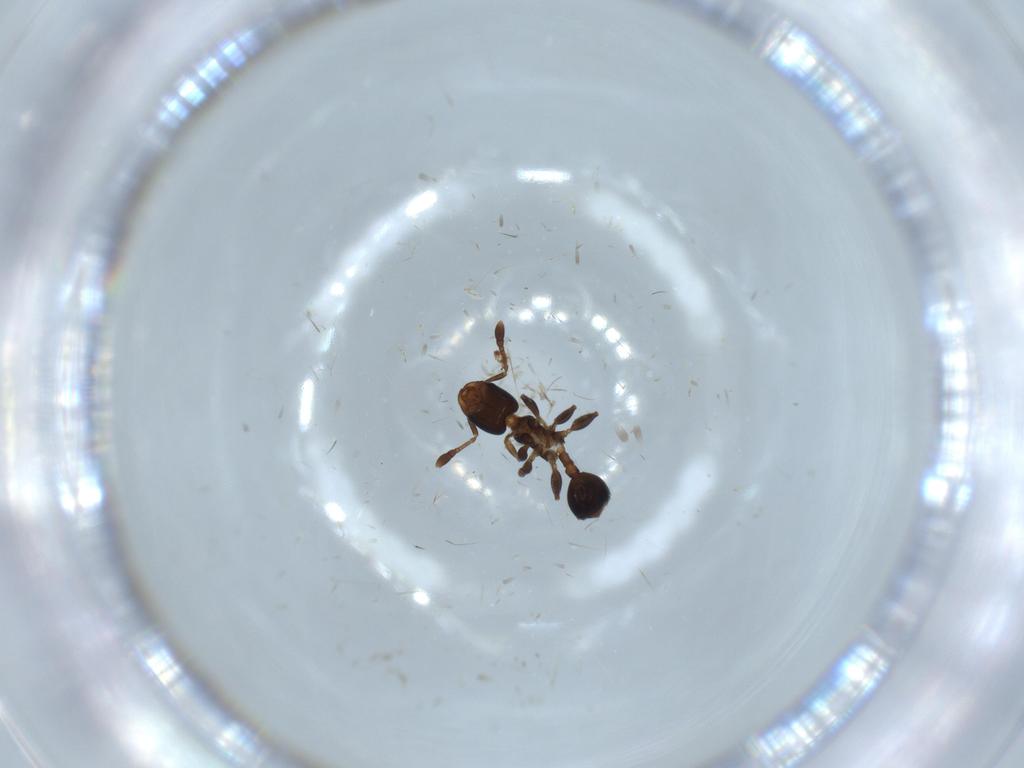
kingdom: Animalia
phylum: Arthropoda
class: Insecta
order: Hymenoptera
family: Formicidae
